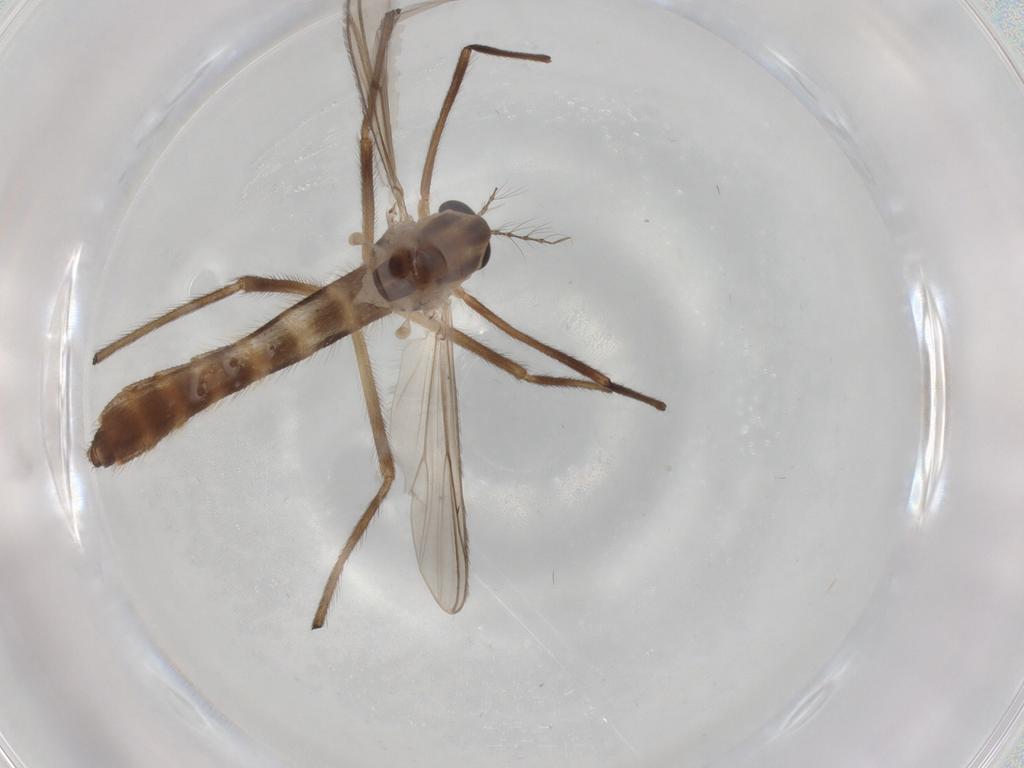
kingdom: Animalia
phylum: Arthropoda
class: Insecta
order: Diptera
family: Chironomidae
